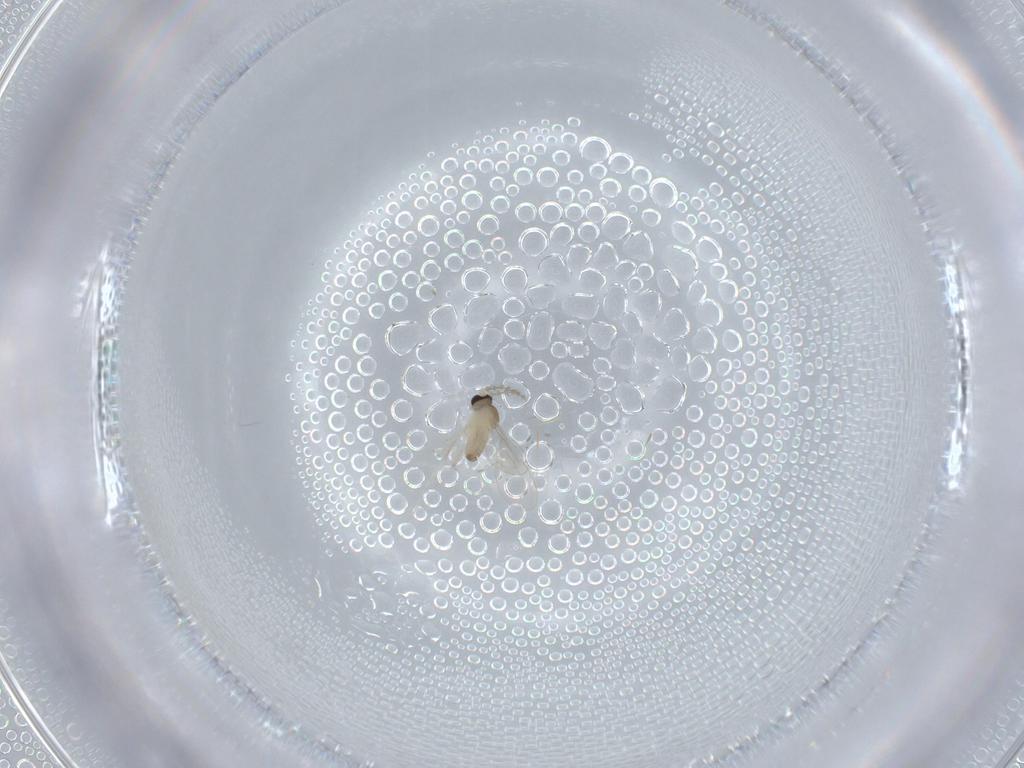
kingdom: Animalia
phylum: Arthropoda
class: Insecta
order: Diptera
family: Cecidomyiidae
